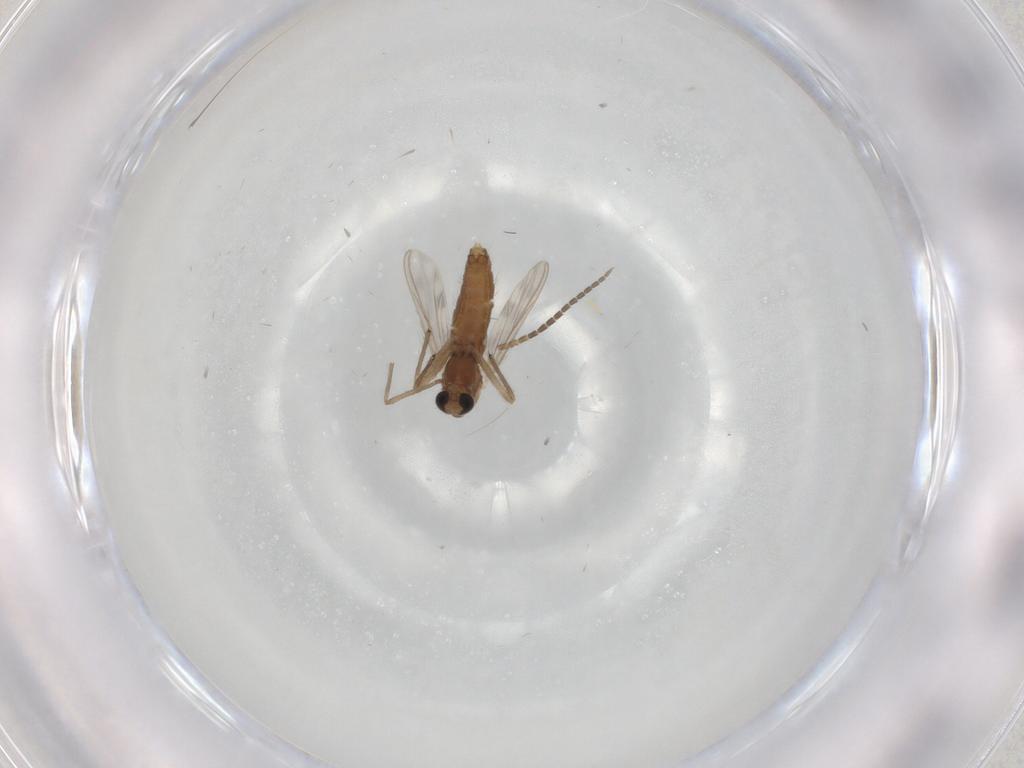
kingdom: Animalia
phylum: Arthropoda
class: Insecta
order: Diptera
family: Chironomidae
